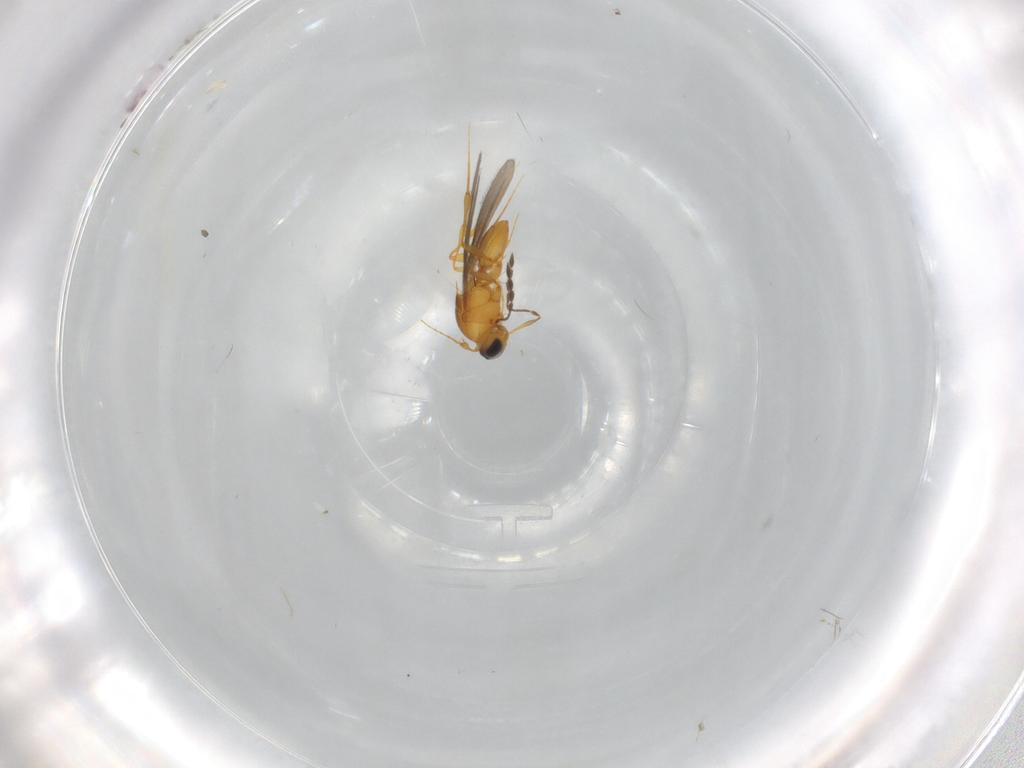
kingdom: Animalia
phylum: Arthropoda
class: Insecta
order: Hymenoptera
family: Platygastridae
